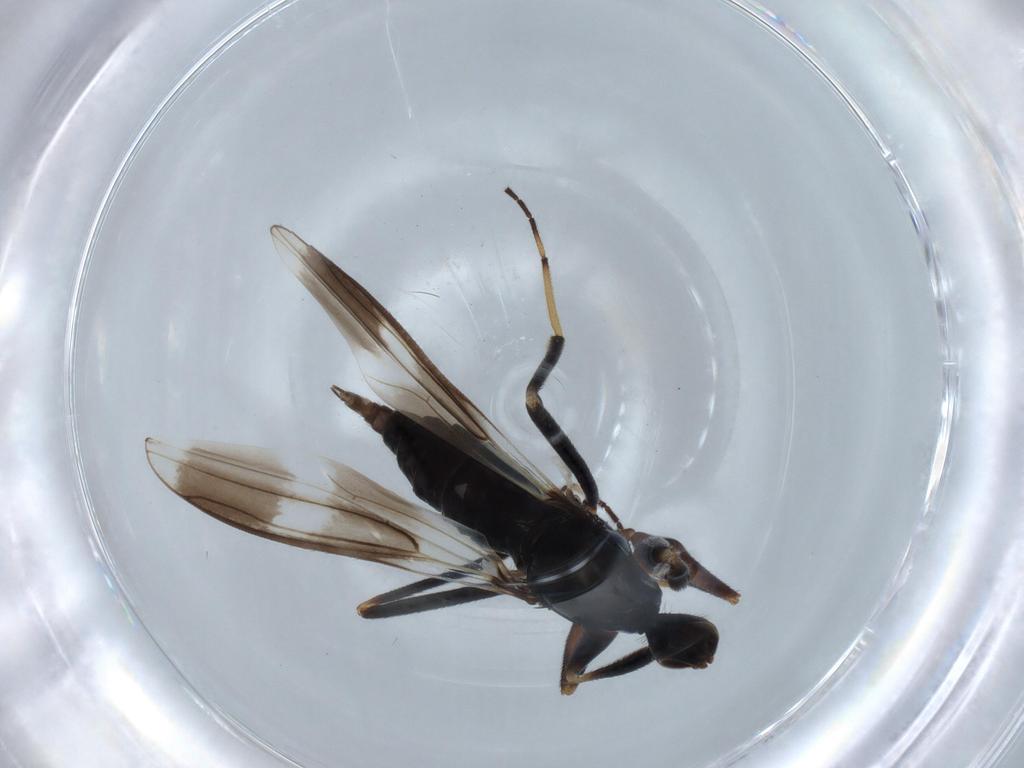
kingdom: Animalia
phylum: Arthropoda
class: Insecta
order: Diptera
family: Hybotidae
